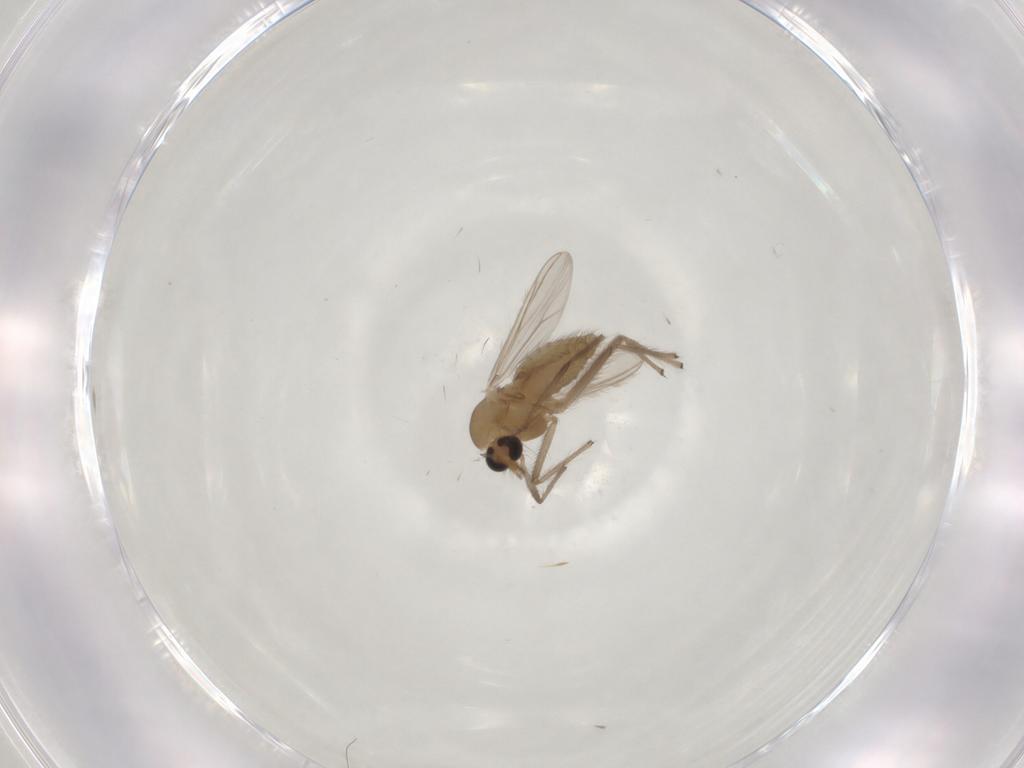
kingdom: Animalia
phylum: Arthropoda
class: Insecta
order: Diptera
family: Chironomidae
